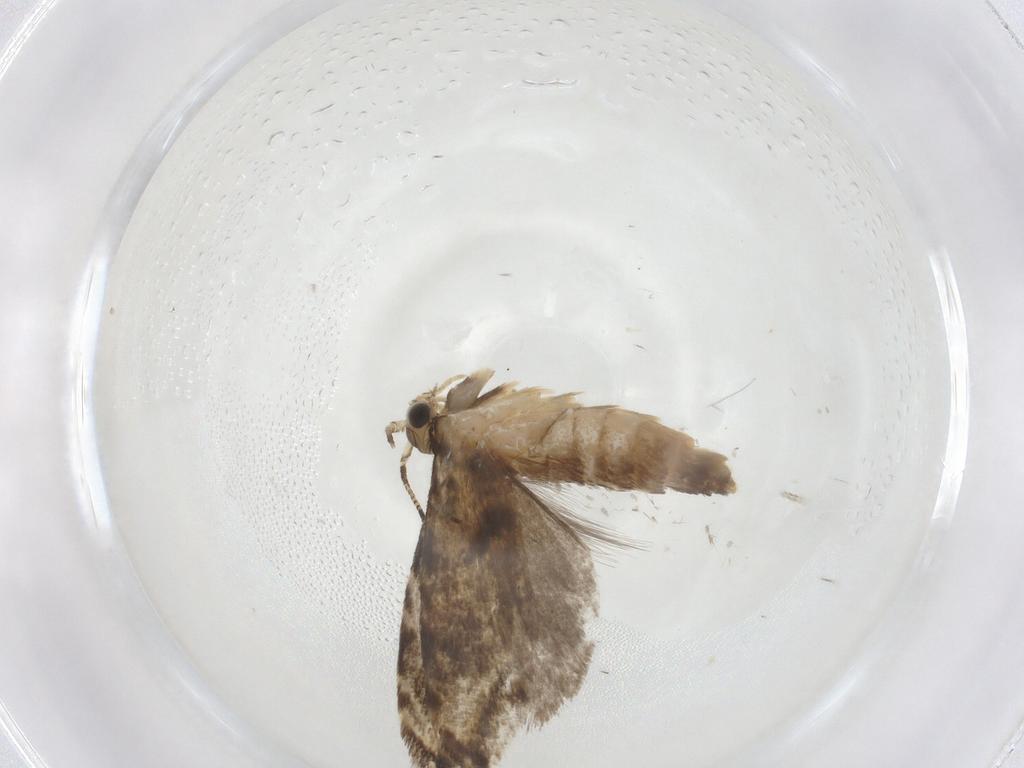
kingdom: Animalia
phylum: Arthropoda
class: Insecta
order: Lepidoptera
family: Tineidae
